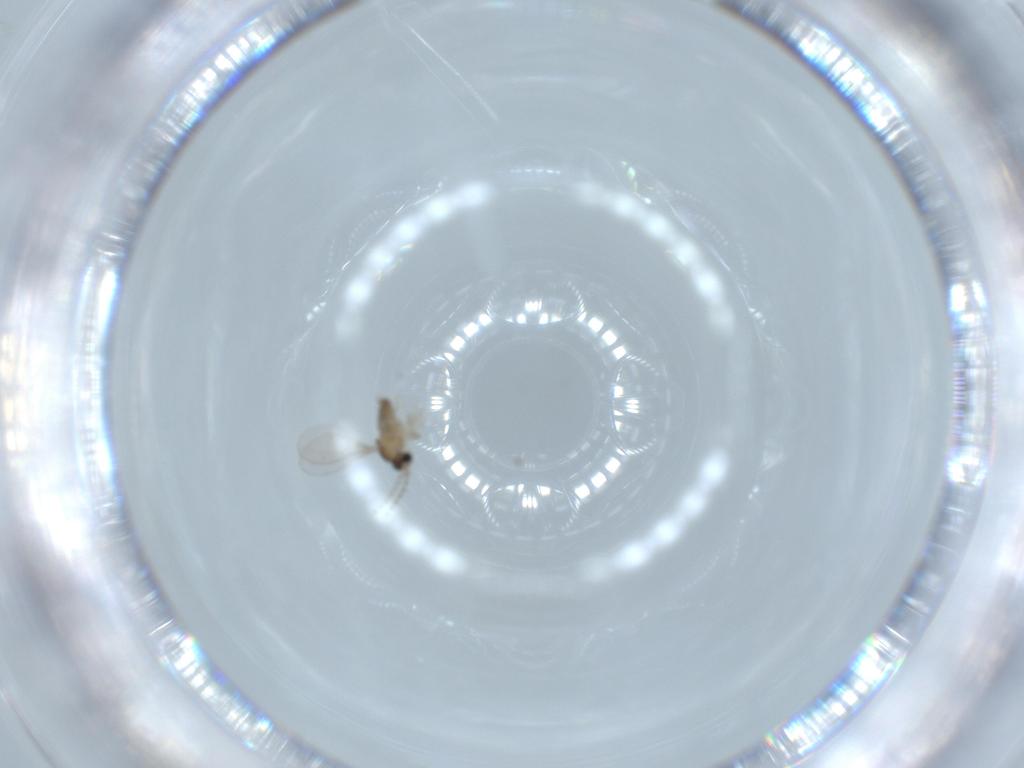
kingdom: Animalia
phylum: Arthropoda
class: Insecta
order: Diptera
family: Cecidomyiidae
